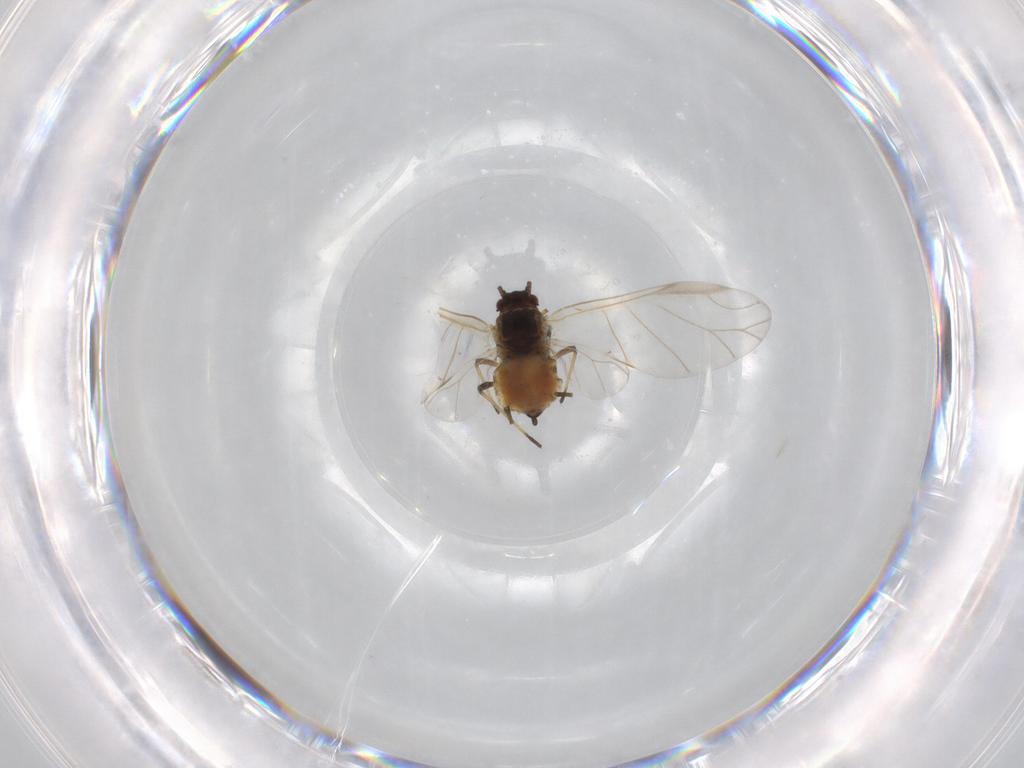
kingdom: Animalia
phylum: Arthropoda
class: Insecta
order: Hemiptera
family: Aphididae
